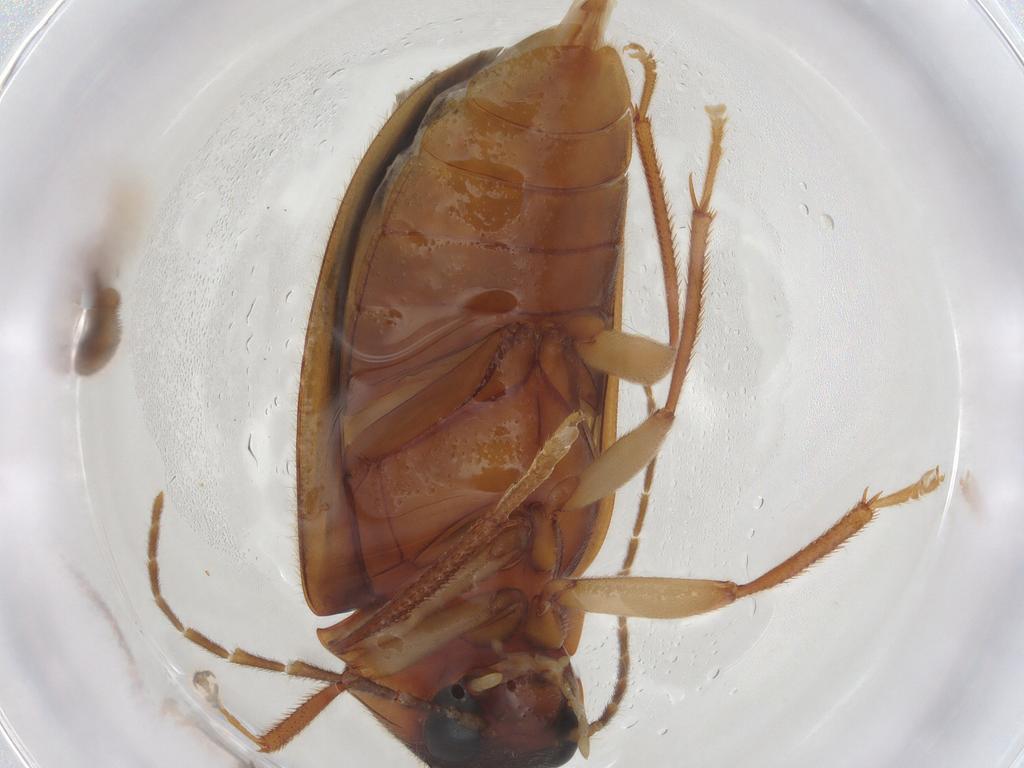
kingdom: Animalia
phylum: Arthropoda
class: Insecta
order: Coleoptera
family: Ptilodactylidae
